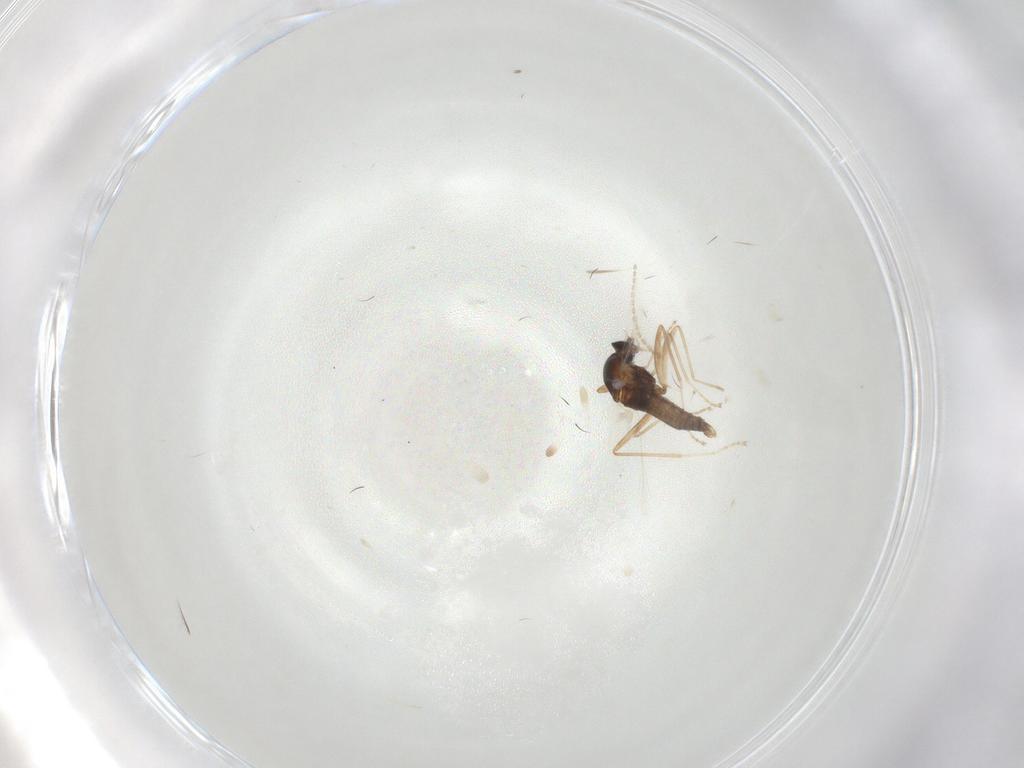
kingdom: Animalia
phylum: Arthropoda
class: Insecta
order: Diptera
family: Cecidomyiidae
